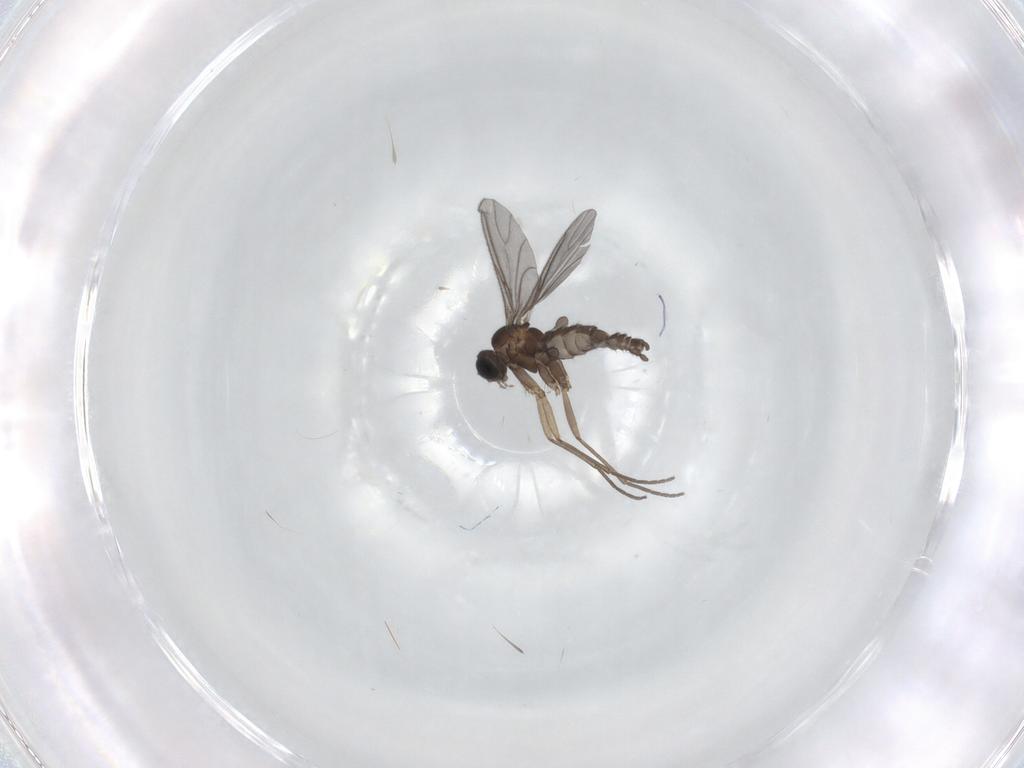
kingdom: Animalia
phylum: Arthropoda
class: Insecta
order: Diptera
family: Sciaridae
